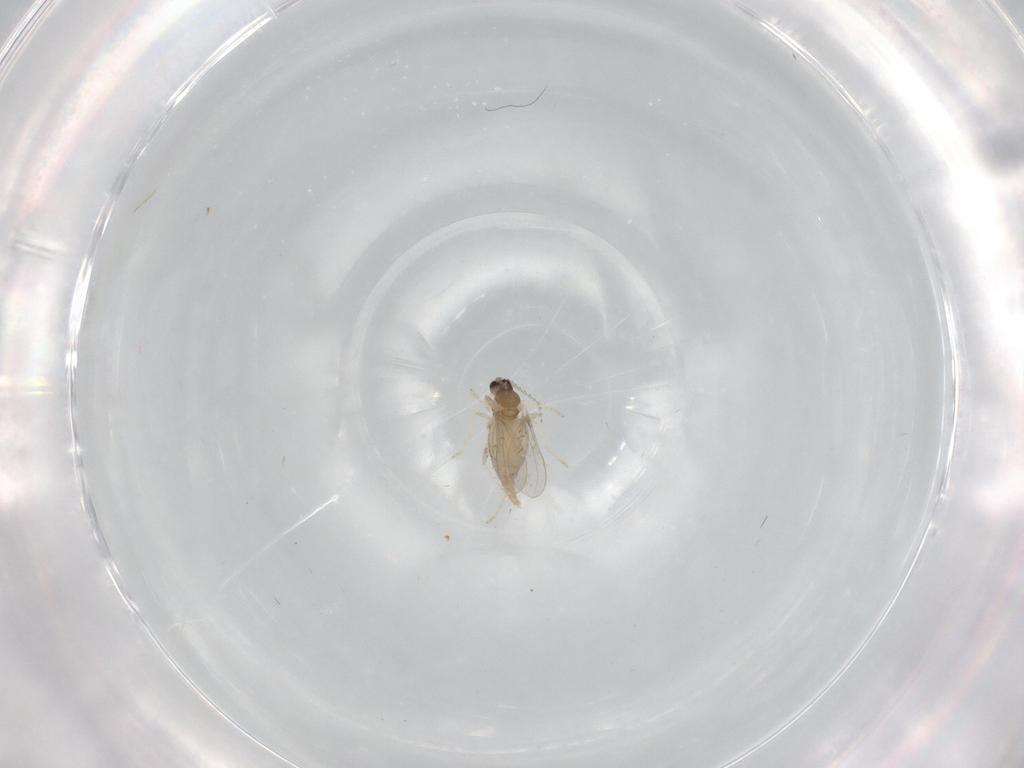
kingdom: Animalia
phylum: Arthropoda
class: Insecta
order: Diptera
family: Cecidomyiidae
